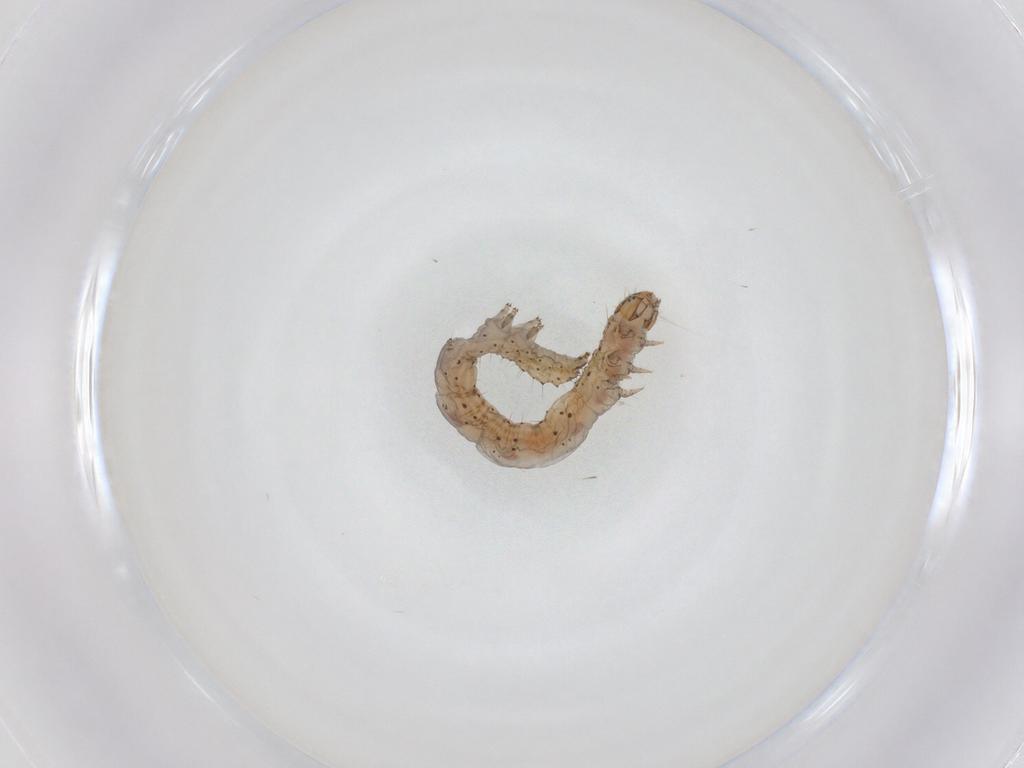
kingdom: Animalia
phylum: Arthropoda
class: Insecta
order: Lepidoptera
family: Erebidae
